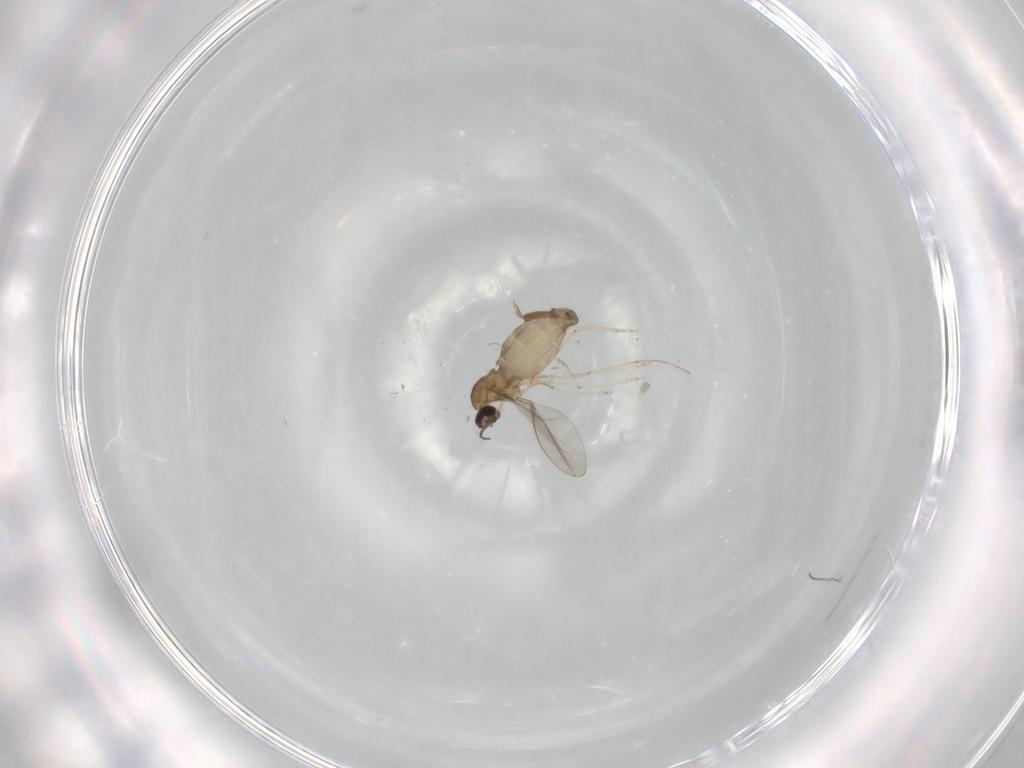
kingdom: Animalia
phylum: Arthropoda
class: Insecta
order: Diptera
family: Cecidomyiidae
